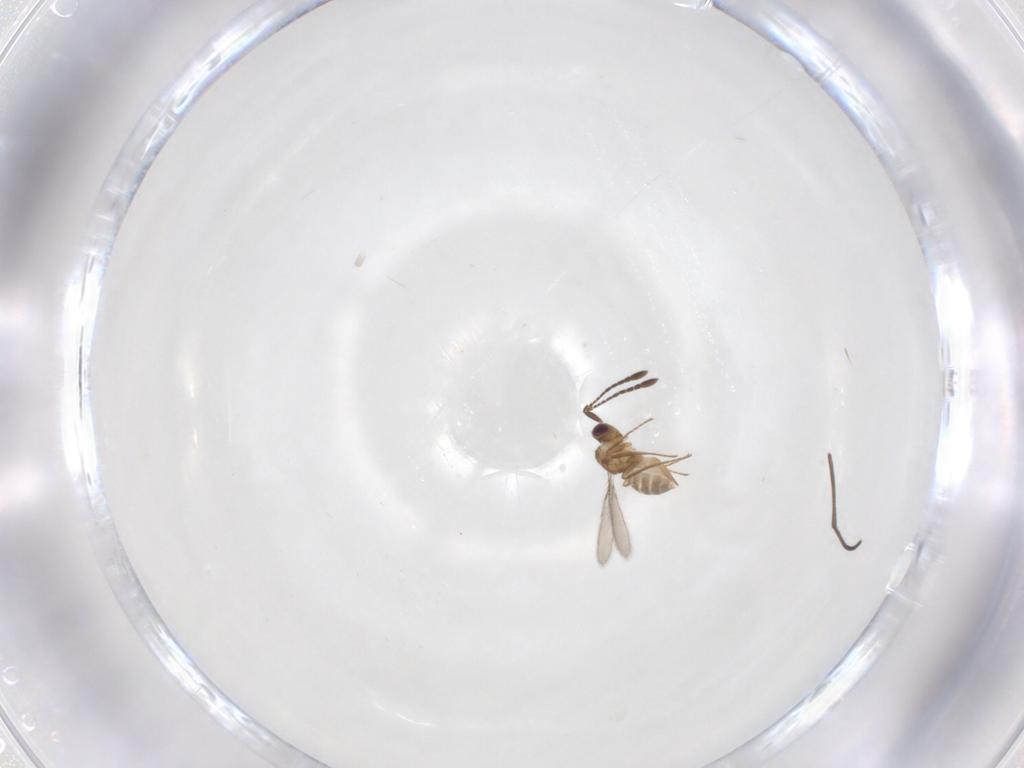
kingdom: Animalia
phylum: Arthropoda
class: Insecta
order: Hymenoptera
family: Mymaridae
